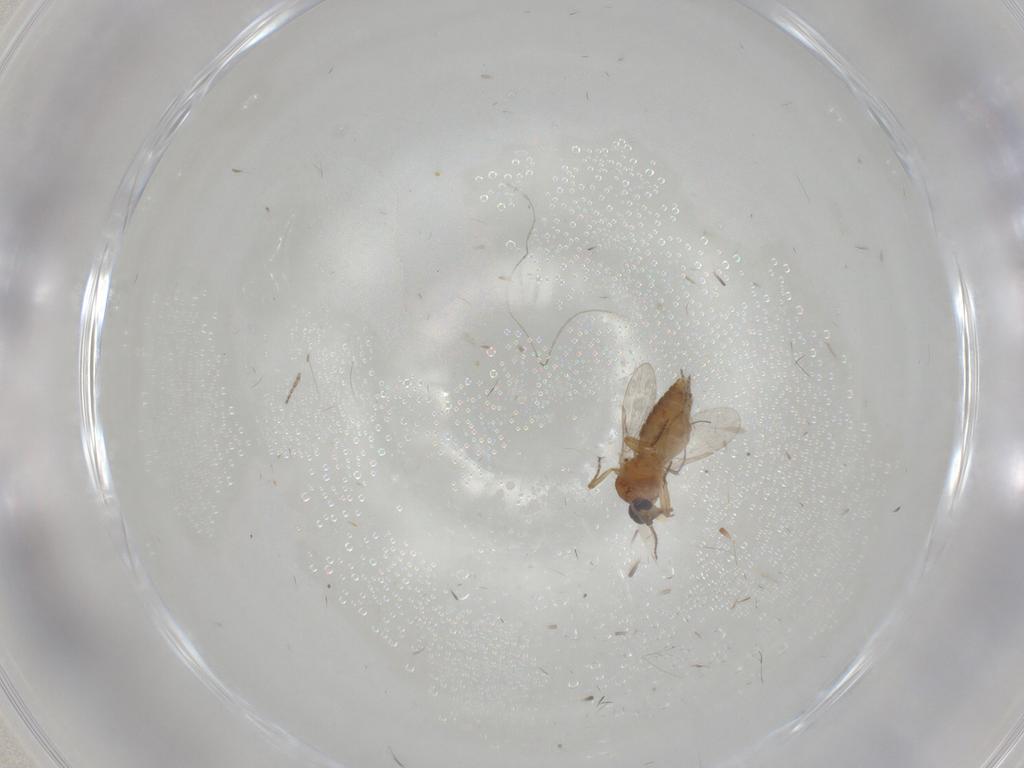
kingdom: Animalia
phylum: Arthropoda
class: Insecta
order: Diptera
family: Ceratopogonidae
